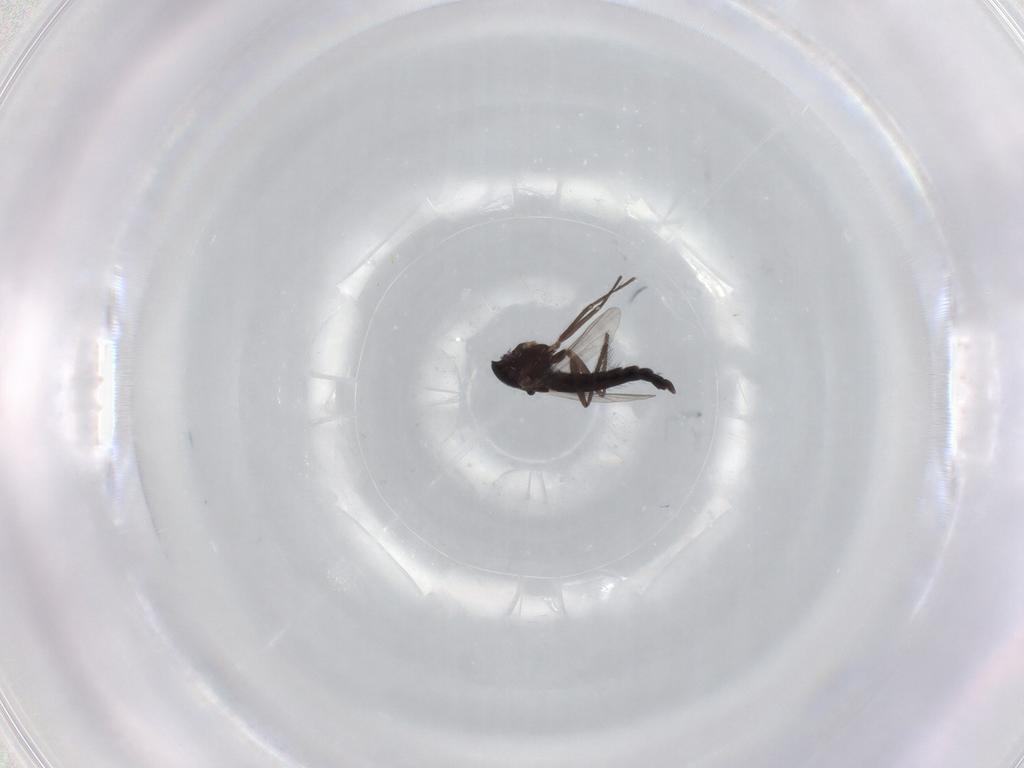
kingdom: Animalia
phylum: Arthropoda
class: Insecta
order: Diptera
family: Chironomidae
